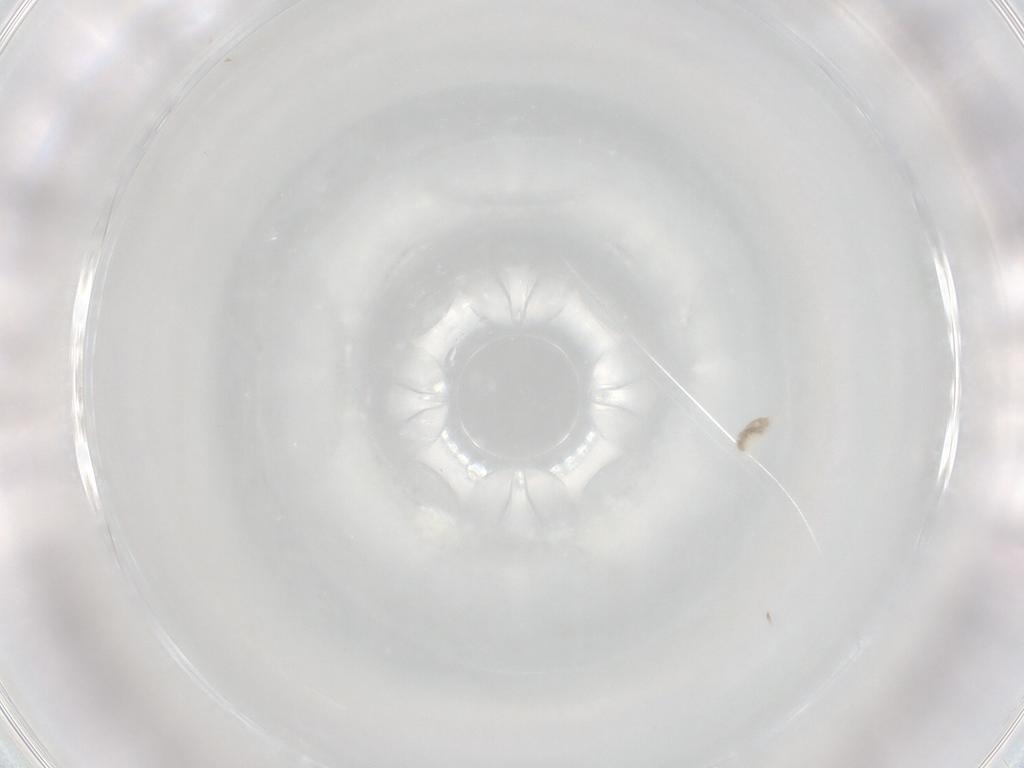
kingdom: Animalia
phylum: Arthropoda
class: Arachnida
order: Trombidiformes
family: Eupodidae
